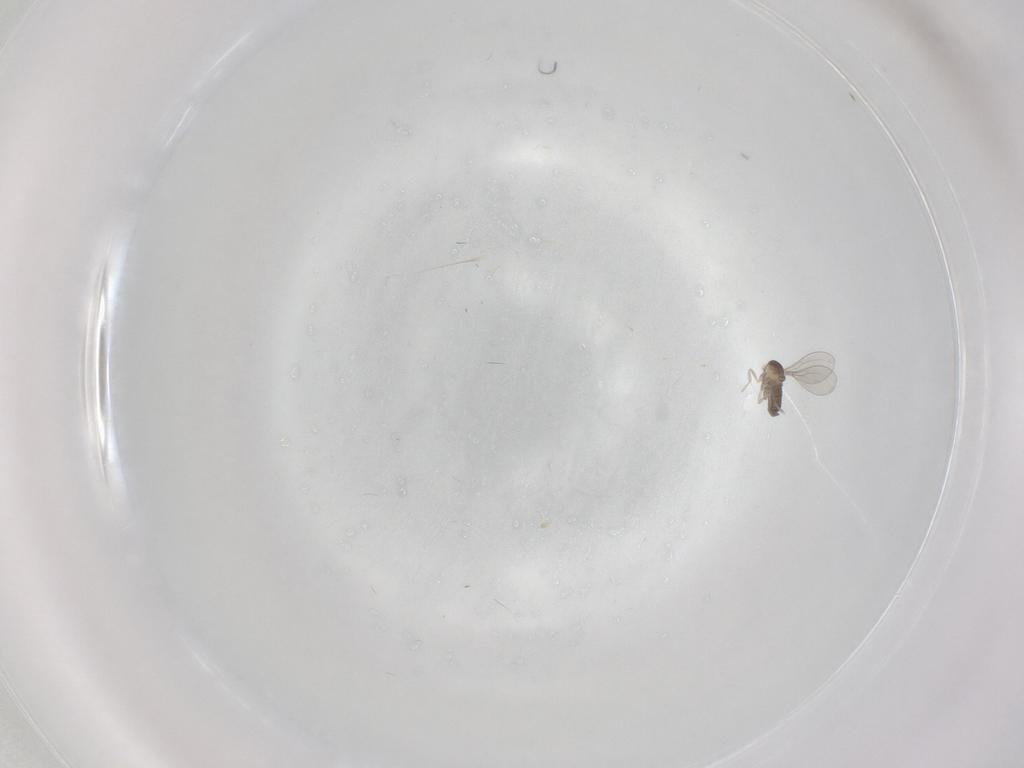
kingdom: Animalia
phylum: Arthropoda
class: Insecta
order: Diptera
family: Cecidomyiidae
